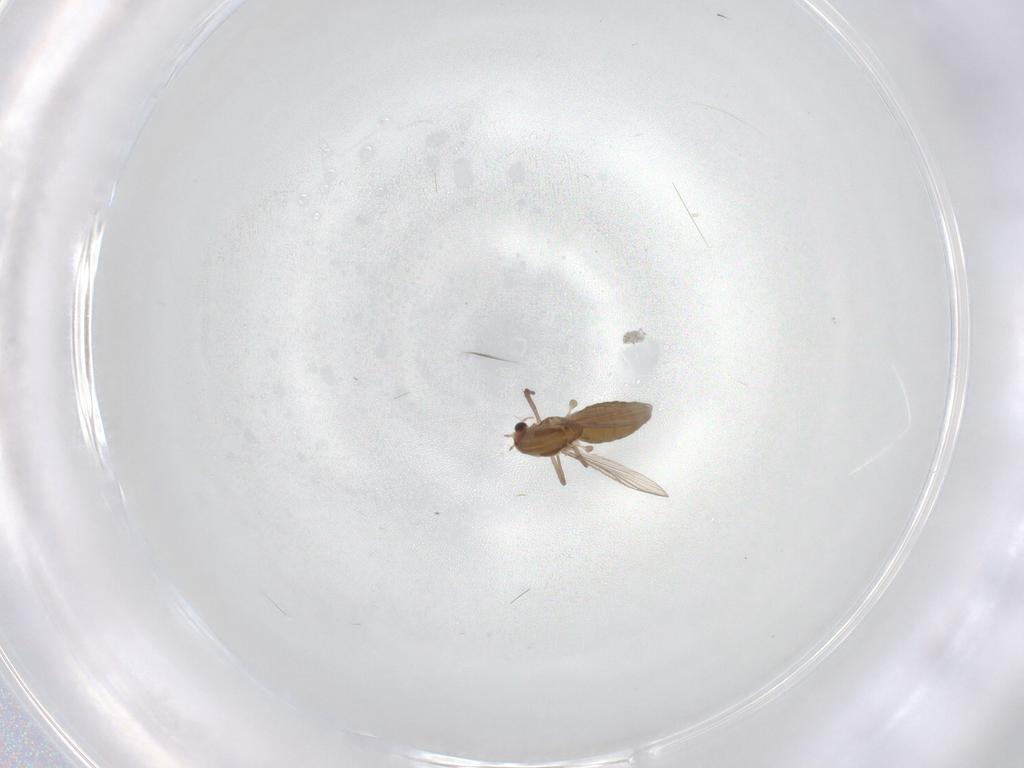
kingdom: Animalia
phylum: Arthropoda
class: Insecta
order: Diptera
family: Chironomidae
